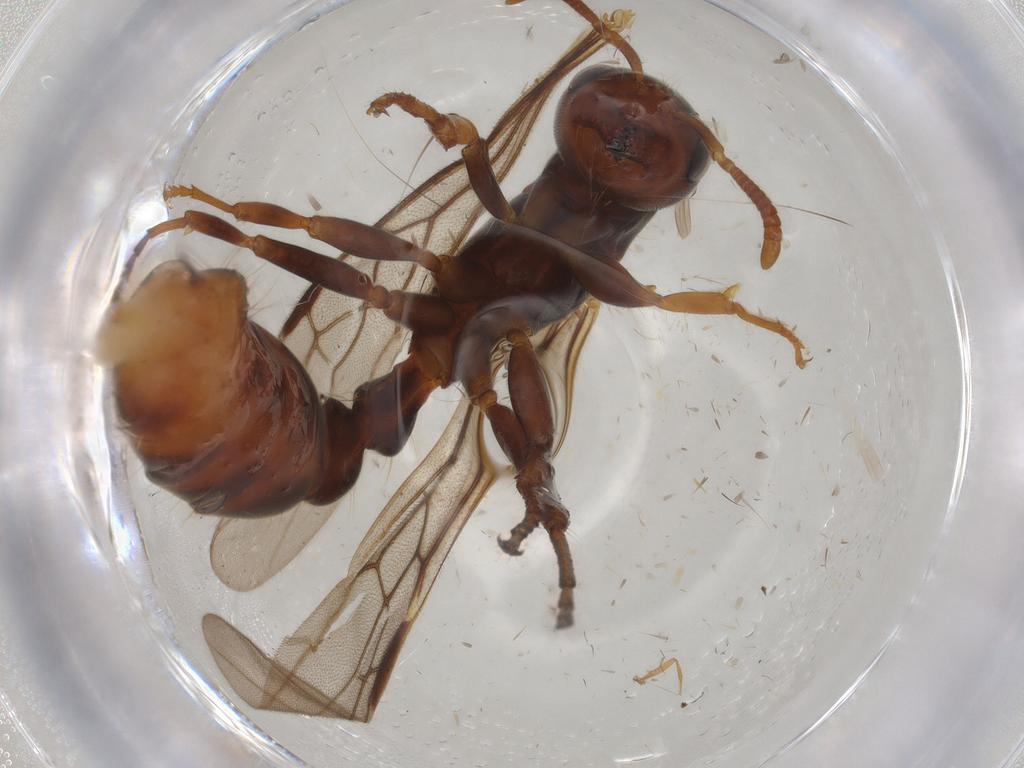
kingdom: Animalia
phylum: Arthropoda
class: Insecta
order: Hymenoptera
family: Formicidae
